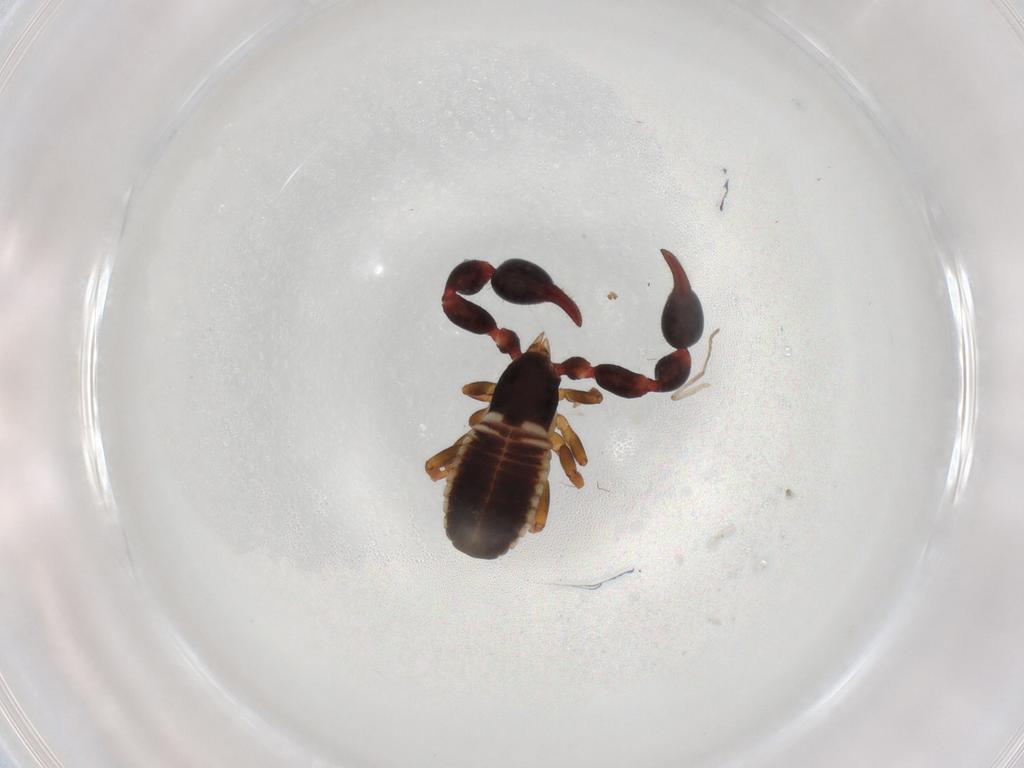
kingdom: Animalia
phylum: Arthropoda
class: Arachnida
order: Pseudoscorpiones
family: Chernetidae
